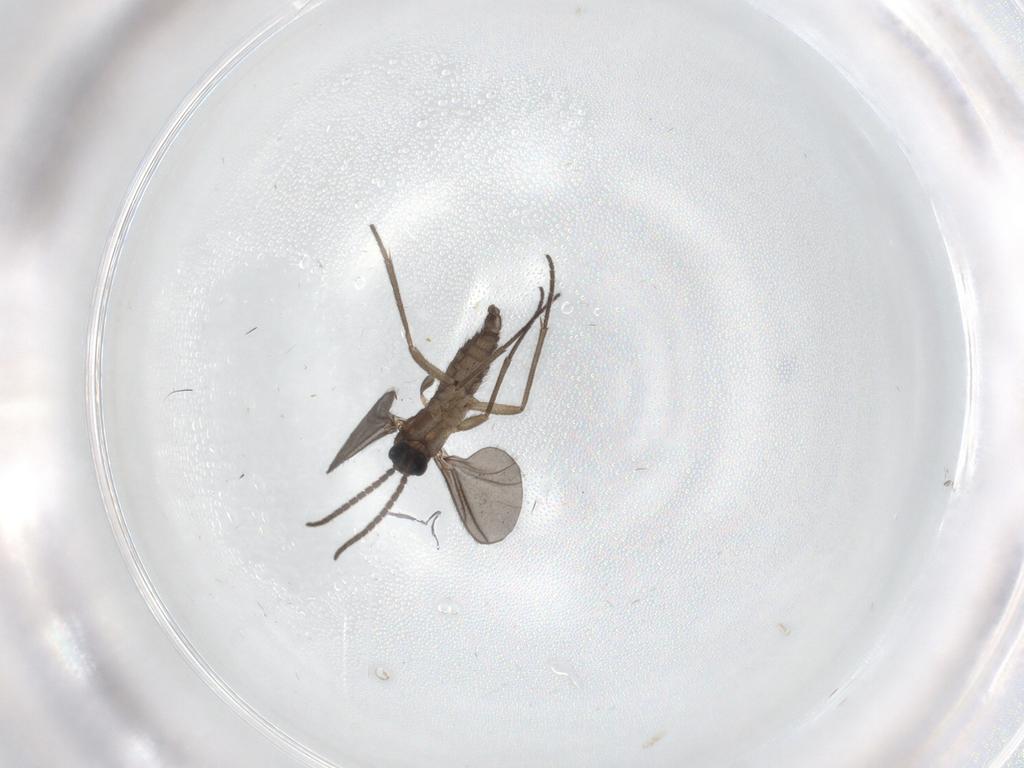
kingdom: Animalia
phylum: Arthropoda
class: Insecta
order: Diptera
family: Sciaridae
